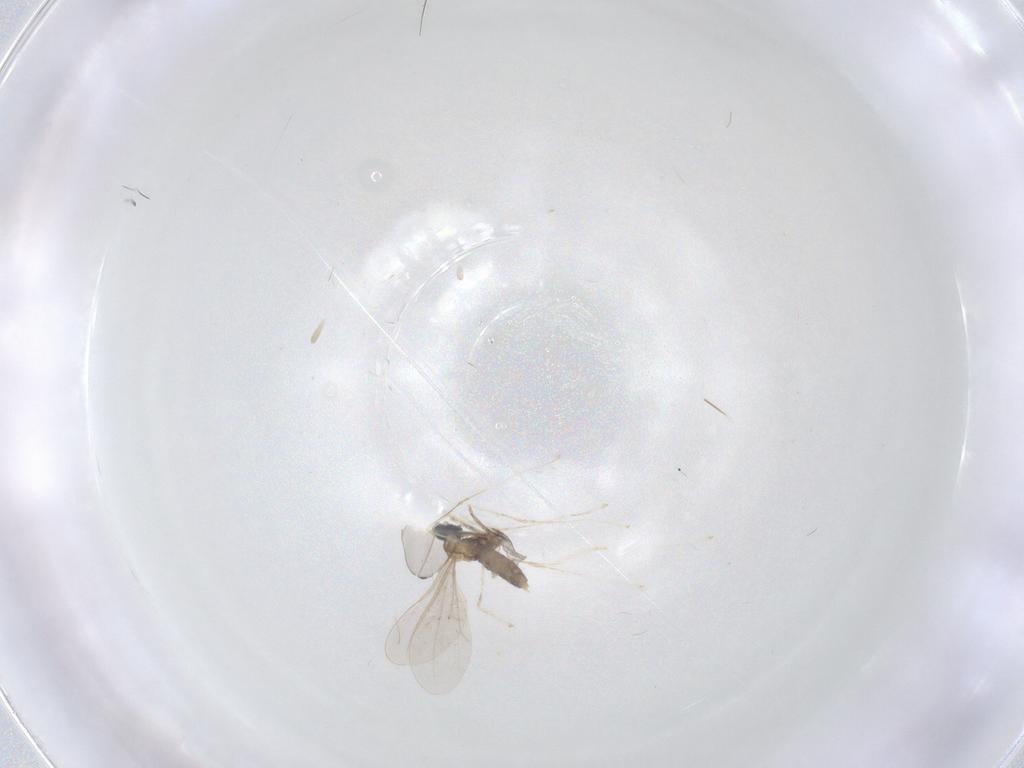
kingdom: Animalia
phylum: Arthropoda
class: Insecta
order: Diptera
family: Cecidomyiidae
